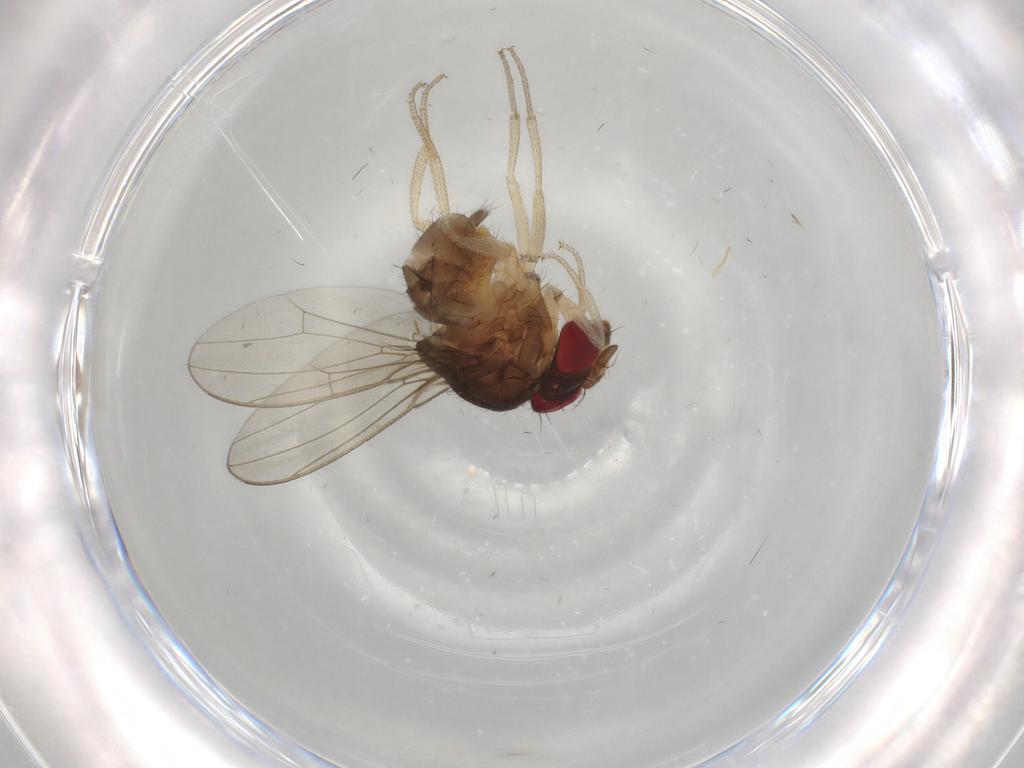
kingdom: Animalia
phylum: Arthropoda
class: Insecta
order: Diptera
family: Drosophilidae
